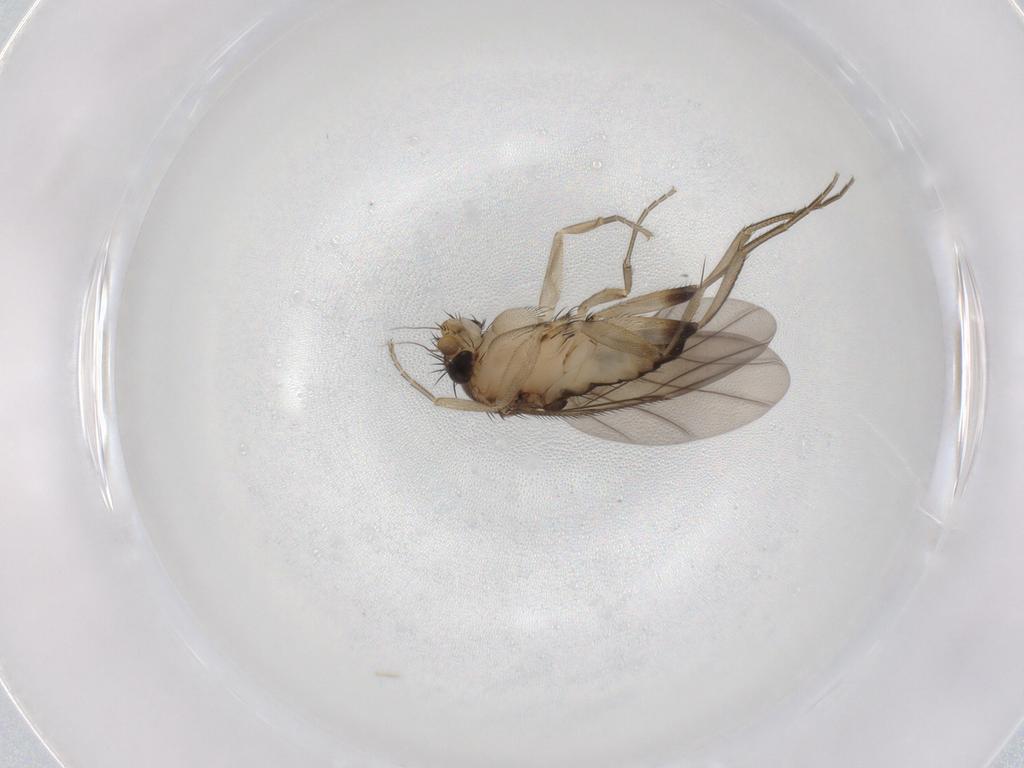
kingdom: Animalia
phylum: Arthropoda
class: Insecta
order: Diptera
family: Phoridae
